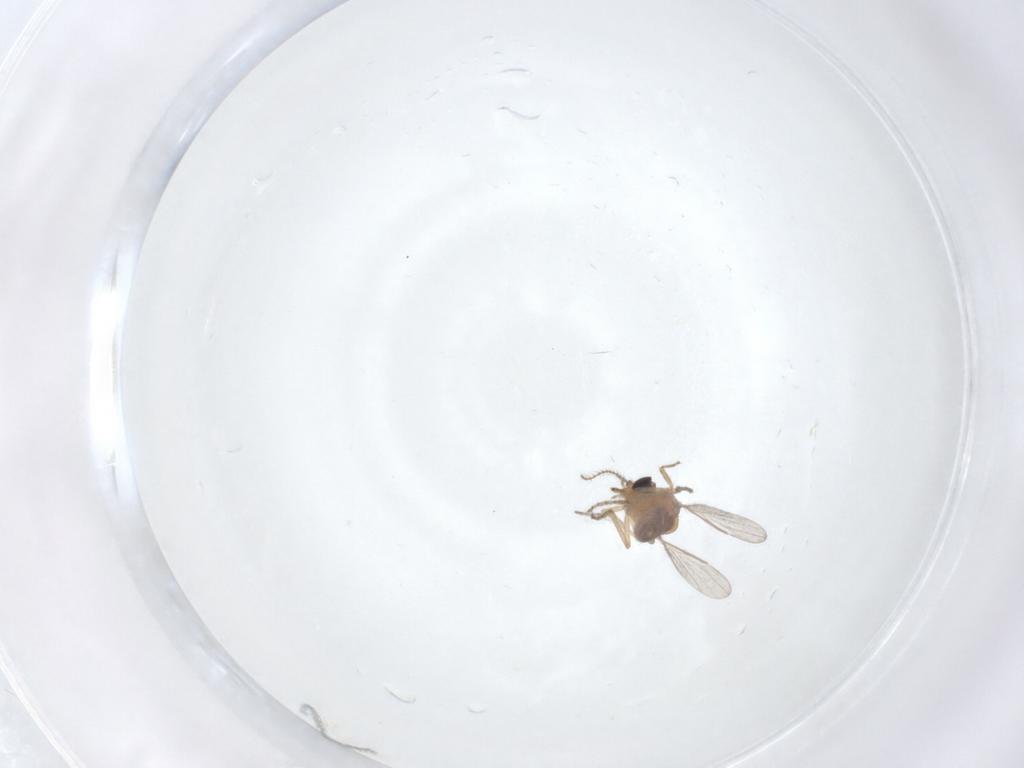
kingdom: Animalia
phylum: Arthropoda
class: Insecta
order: Diptera
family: Ceratopogonidae
